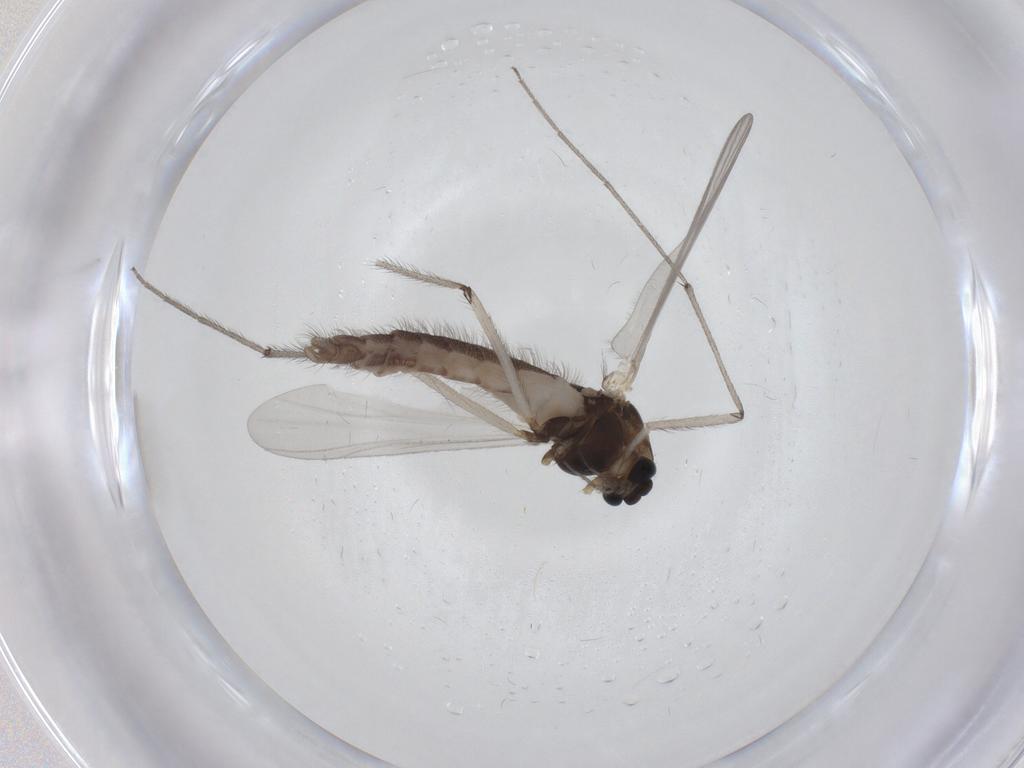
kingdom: Animalia
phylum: Arthropoda
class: Insecta
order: Diptera
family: Chironomidae
